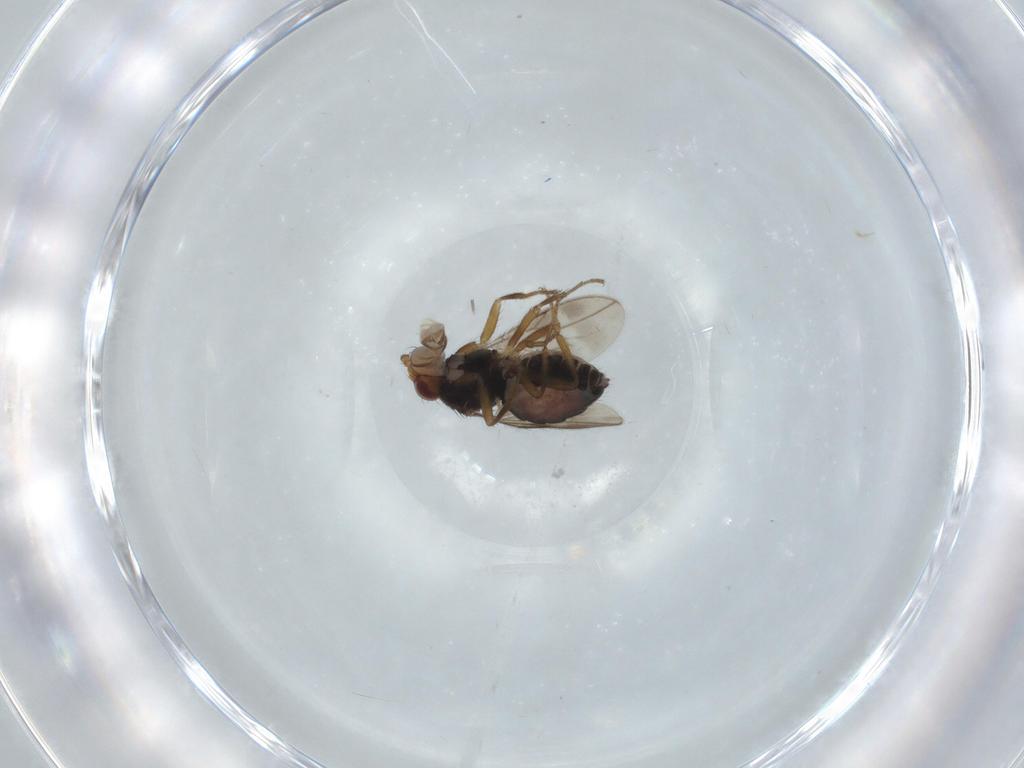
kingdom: Animalia
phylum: Arthropoda
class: Insecta
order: Diptera
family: Sphaeroceridae
